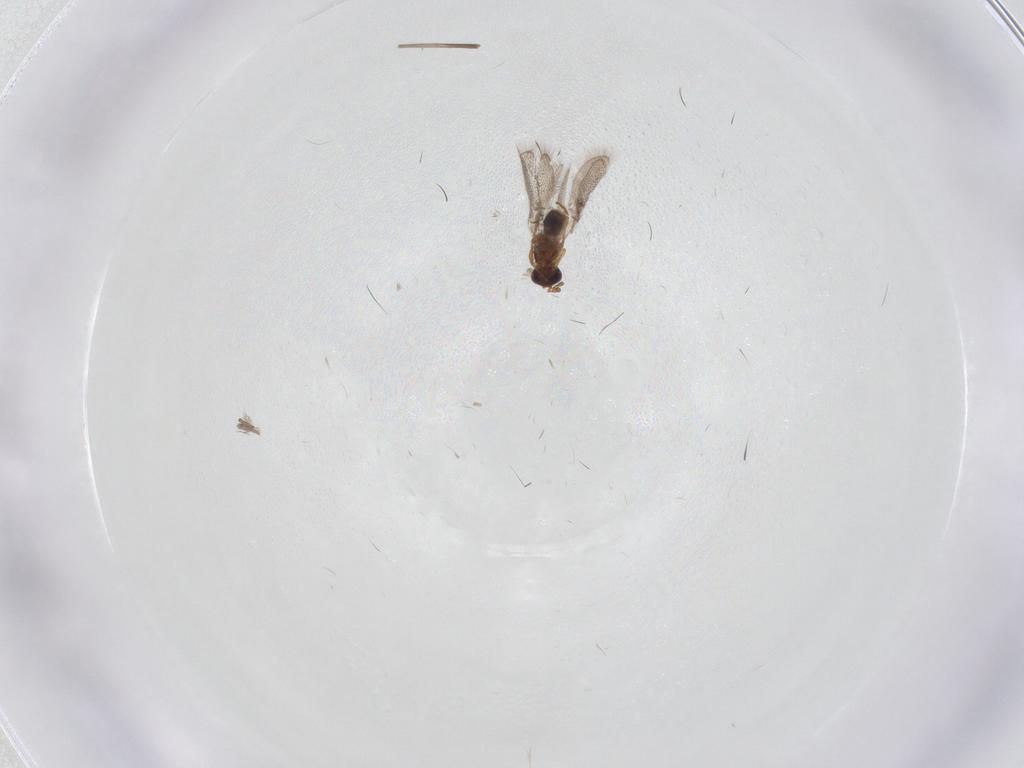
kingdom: Animalia
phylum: Arthropoda
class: Insecta
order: Diptera
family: Ceratopogonidae
